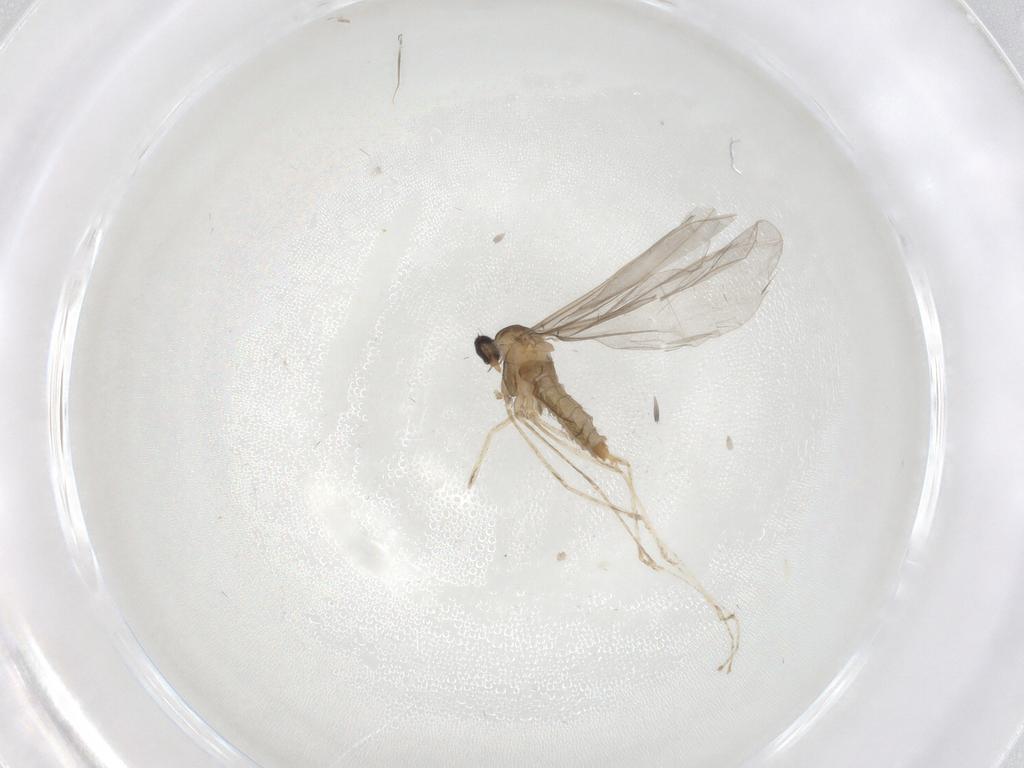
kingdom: Animalia
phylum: Arthropoda
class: Insecta
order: Diptera
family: Cecidomyiidae
